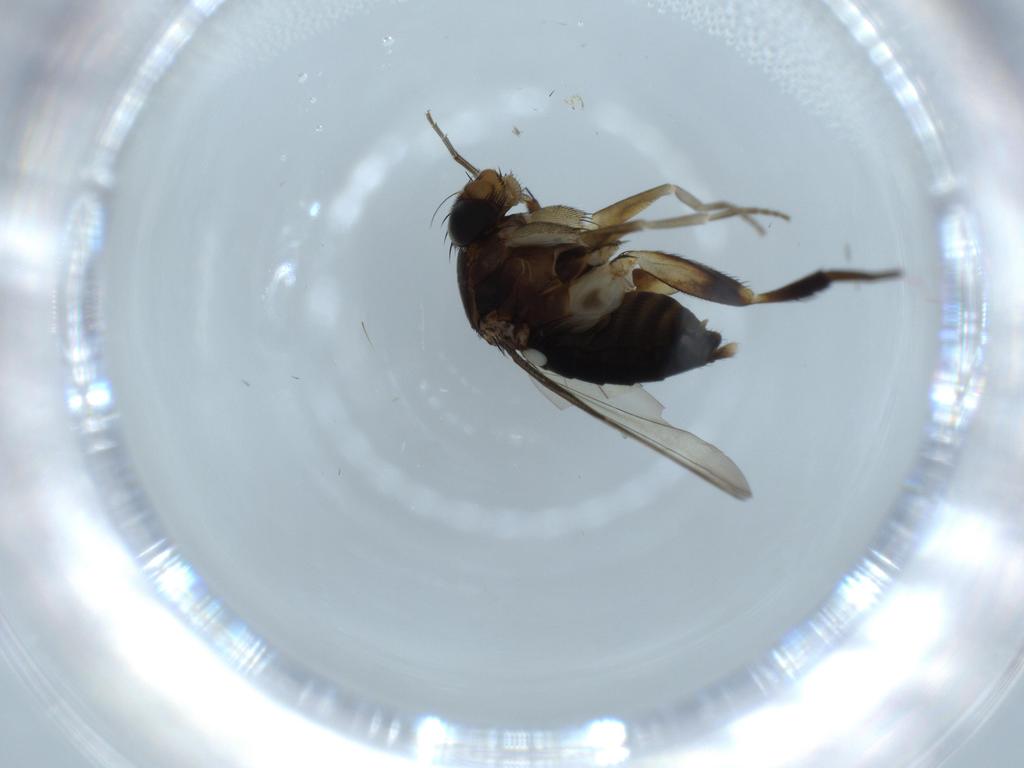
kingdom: Animalia
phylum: Arthropoda
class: Insecta
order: Diptera
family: Phoridae
